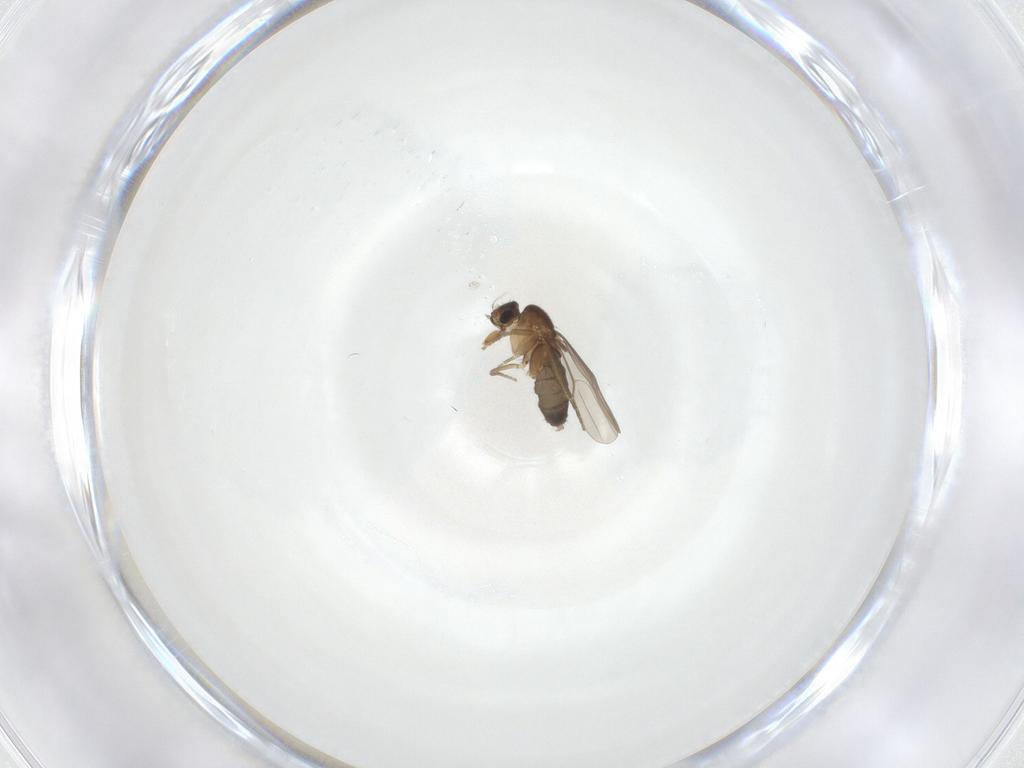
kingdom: Animalia
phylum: Arthropoda
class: Insecta
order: Diptera
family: Phoridae
